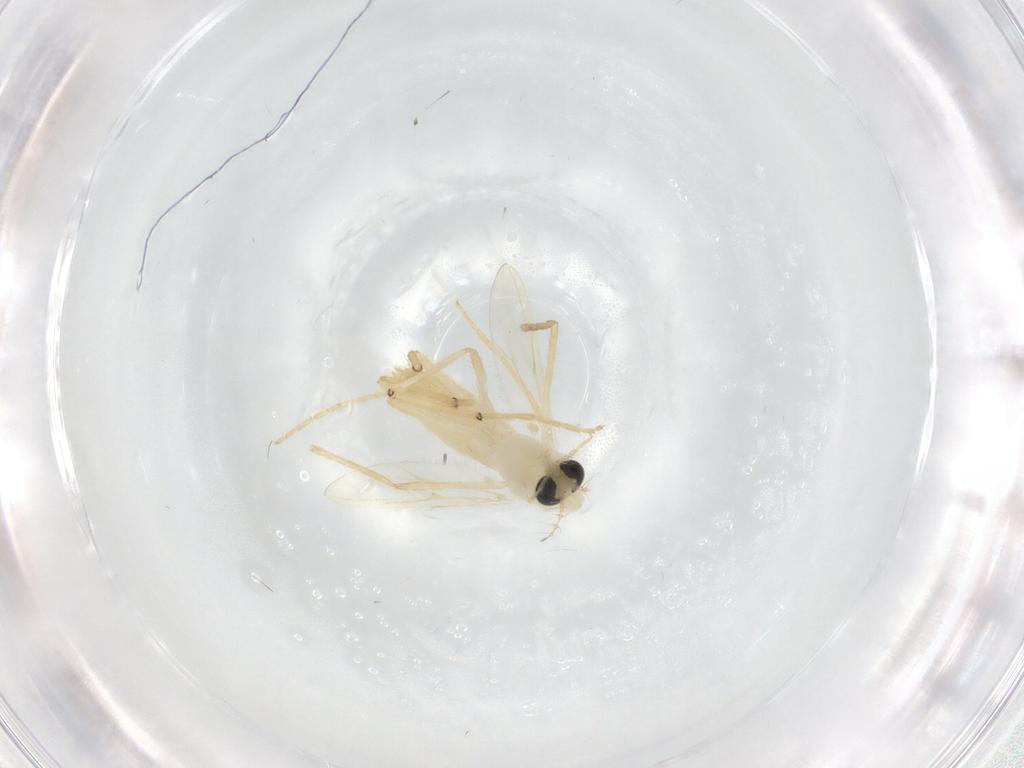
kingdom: Animalia
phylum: Arthropoda
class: Insecta
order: Diptera
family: Chironomidae
